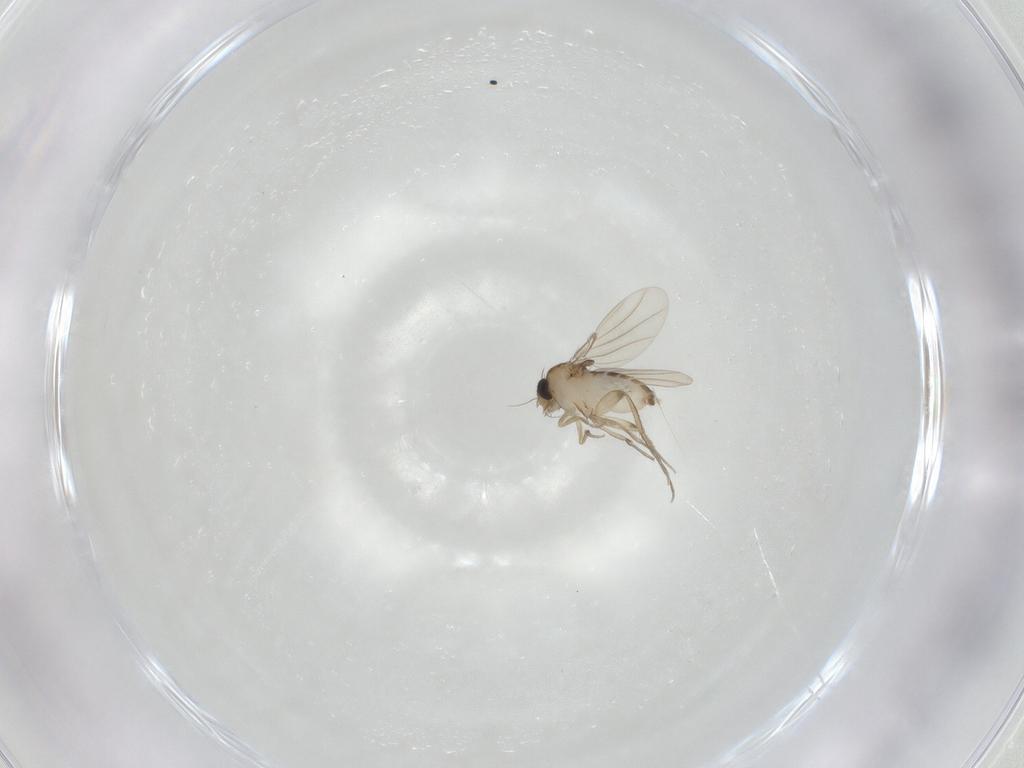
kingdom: Animalia
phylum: Arthropoda
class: Insecta
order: Diptera
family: Phoridae
